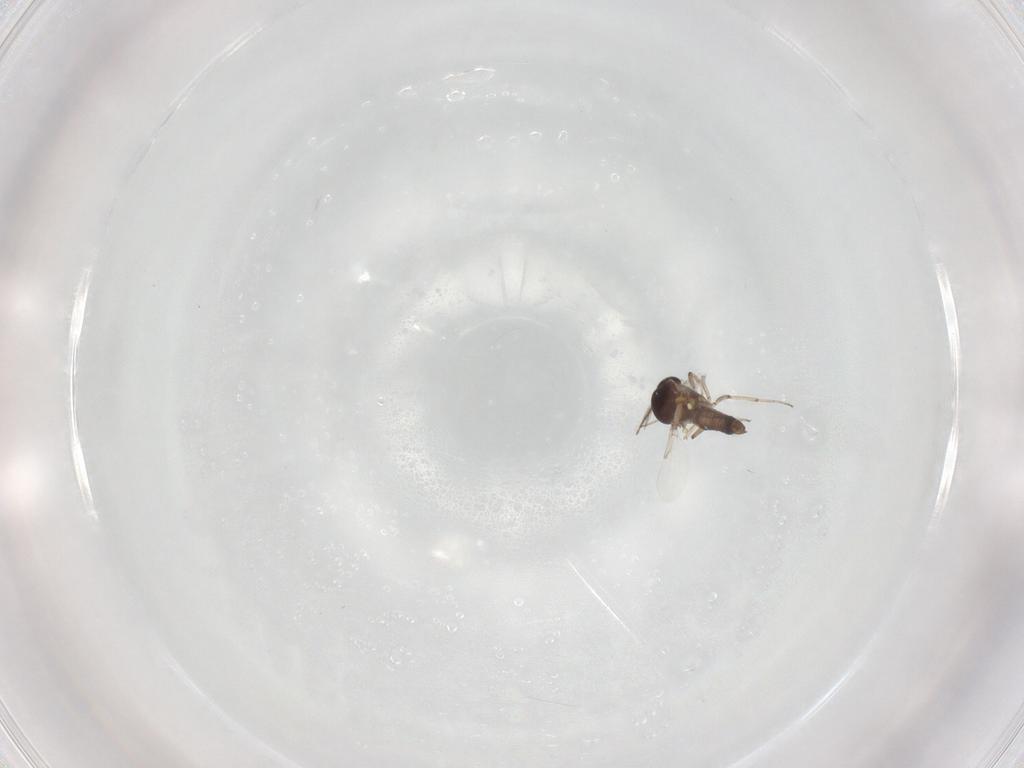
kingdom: Animalia
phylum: Arthropoda
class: Insecta
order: Diptera
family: Ceratopogonidae
